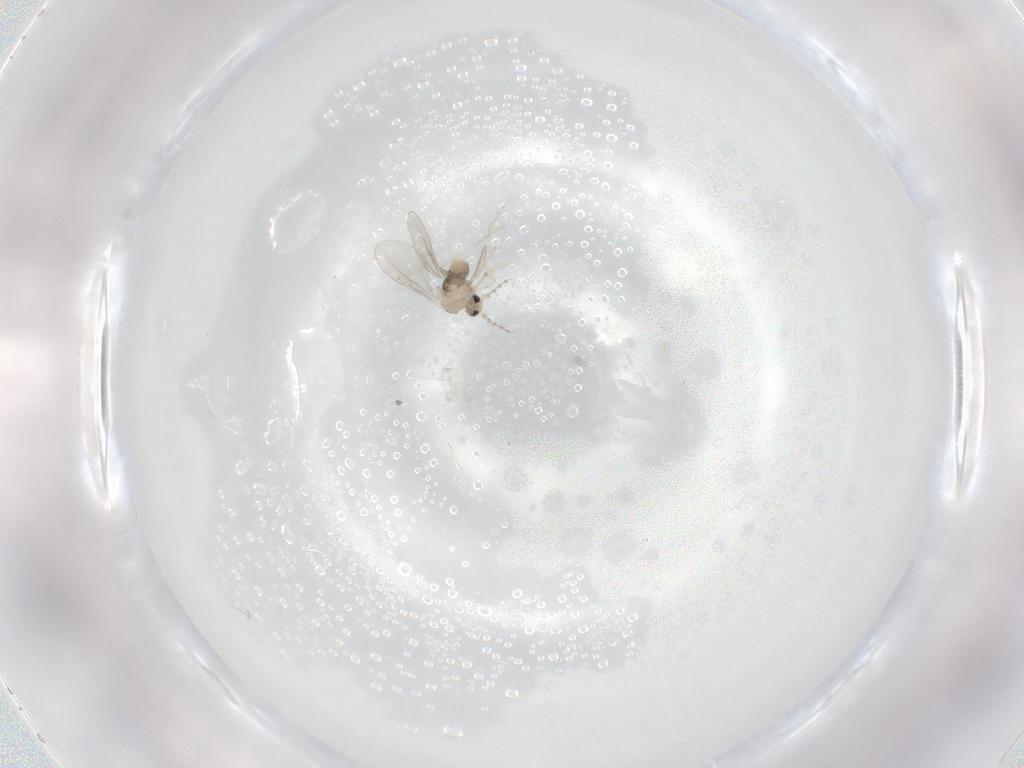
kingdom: Animalia
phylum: Arthropoda
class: Insecta
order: Diptera
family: Cecidomyiidae
